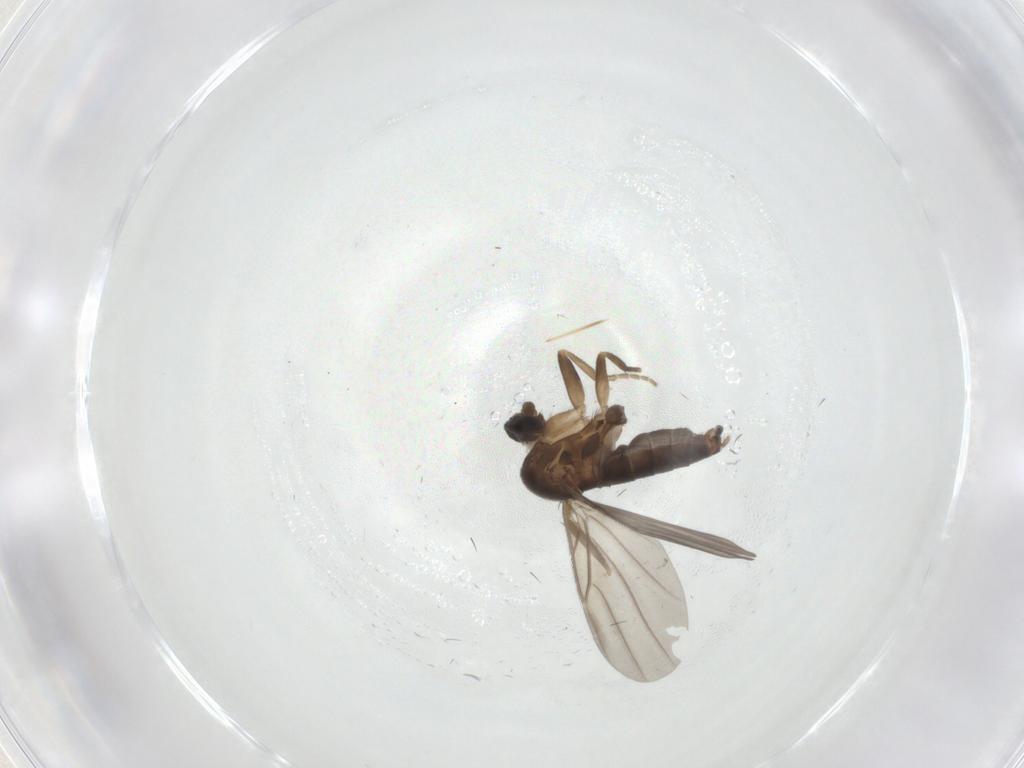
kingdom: Animalia
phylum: Arthropoda
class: Insecta
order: Diptera
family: Phoridae
